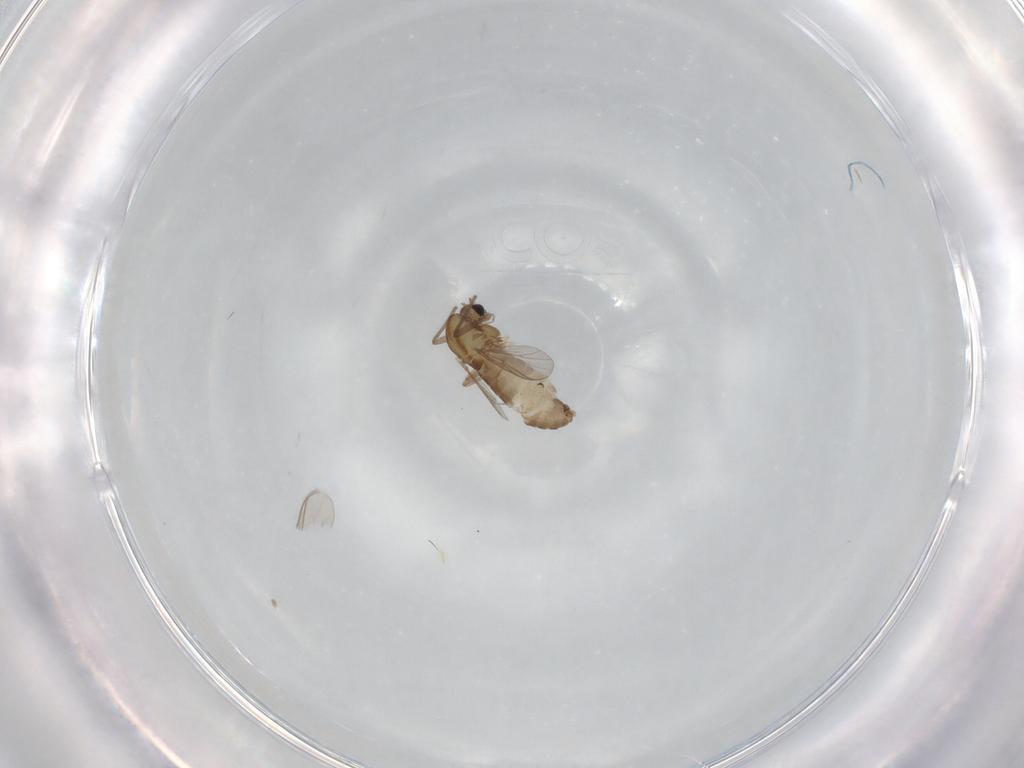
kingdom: Animalia
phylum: Arthropoda
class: Insecta
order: Diptera
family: Chironomidae
